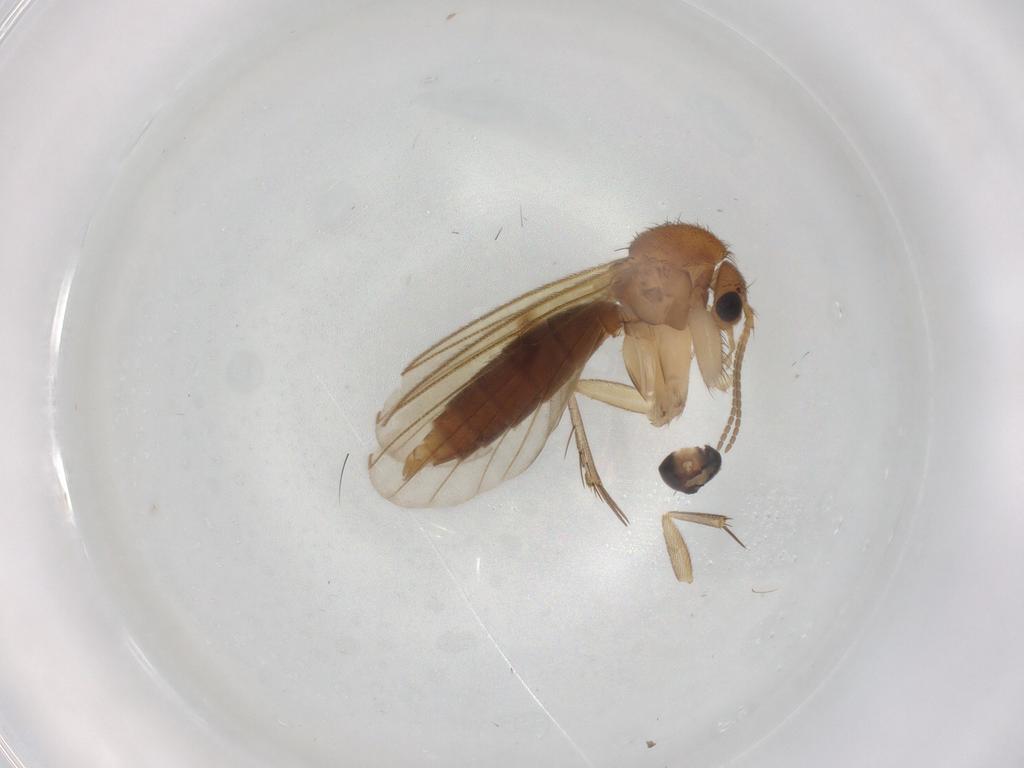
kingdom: Animalia
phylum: Arthropoda
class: Insecta
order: Diptera
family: Phoridae
